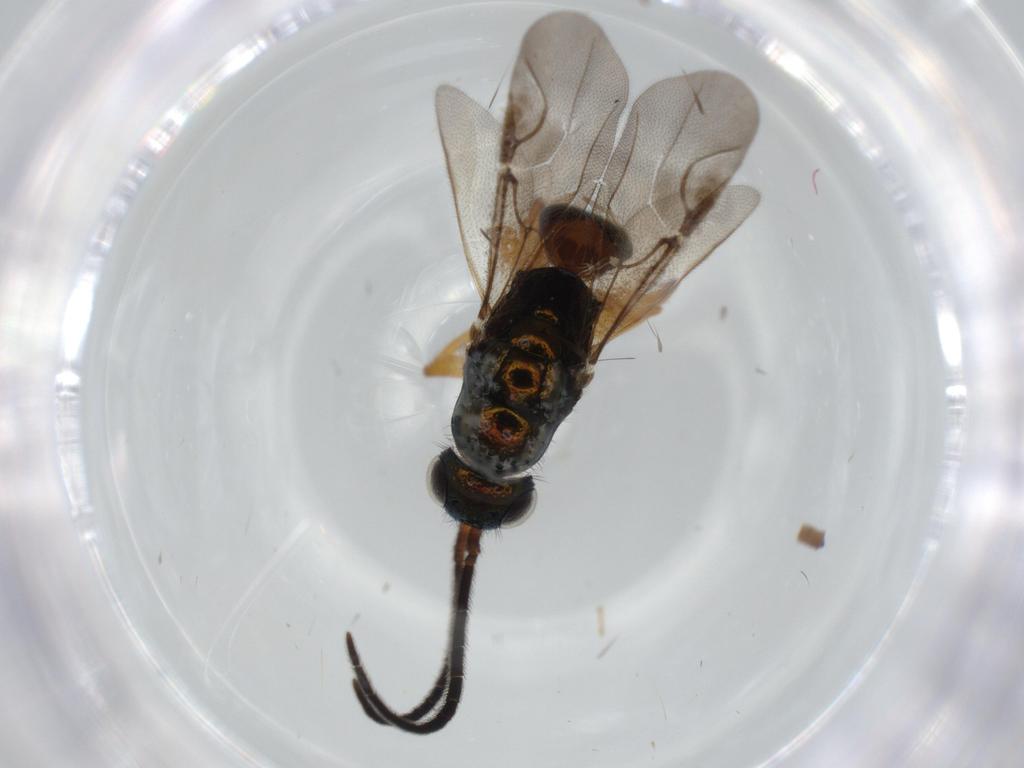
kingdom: Animalia
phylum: Arthropoda
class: Insecta
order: Hymenoptera
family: Chrysididae
